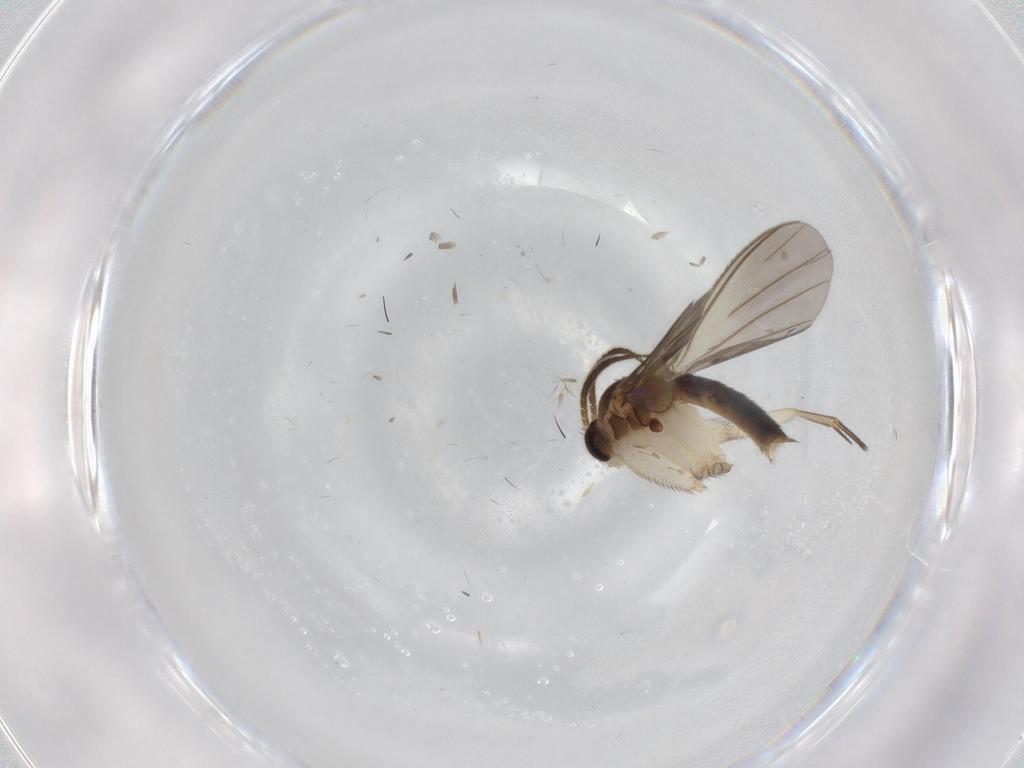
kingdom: Animalia
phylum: Arthropoda
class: Insecta
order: Diptera
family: Mycetophilidae
